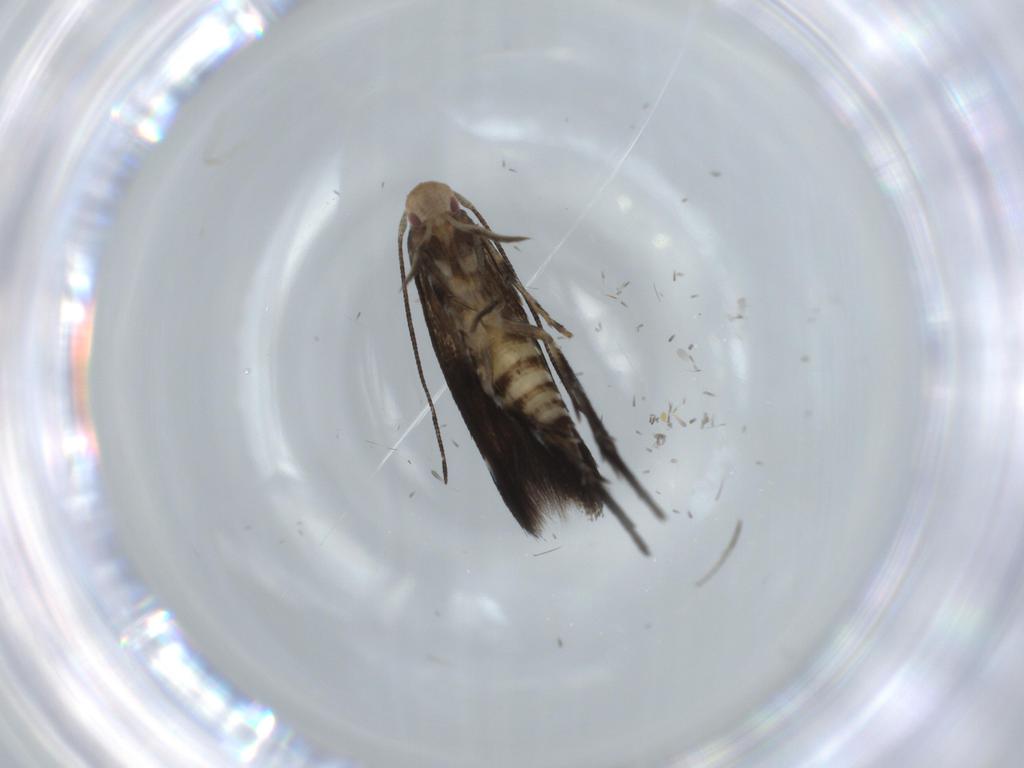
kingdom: Animalia
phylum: Arthropoda
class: Insecta
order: Lepidoptera
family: Momphidae
